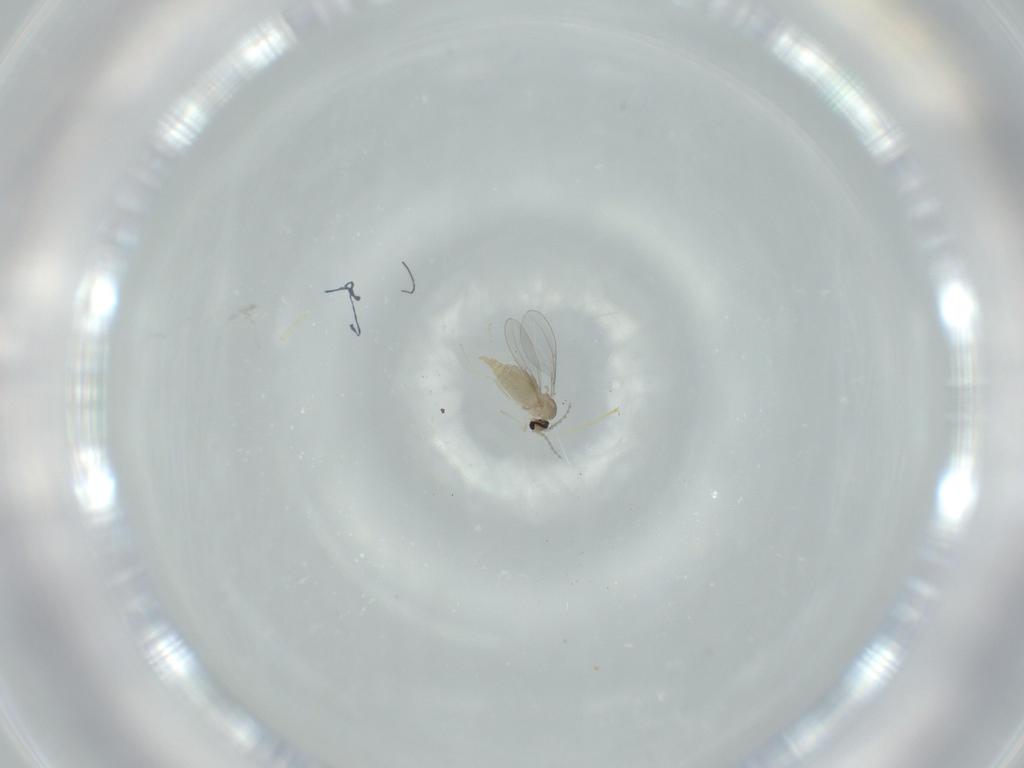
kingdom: Animalia
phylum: Arthropoda
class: Insecta
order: Diptera
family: Cecidomyiidae
